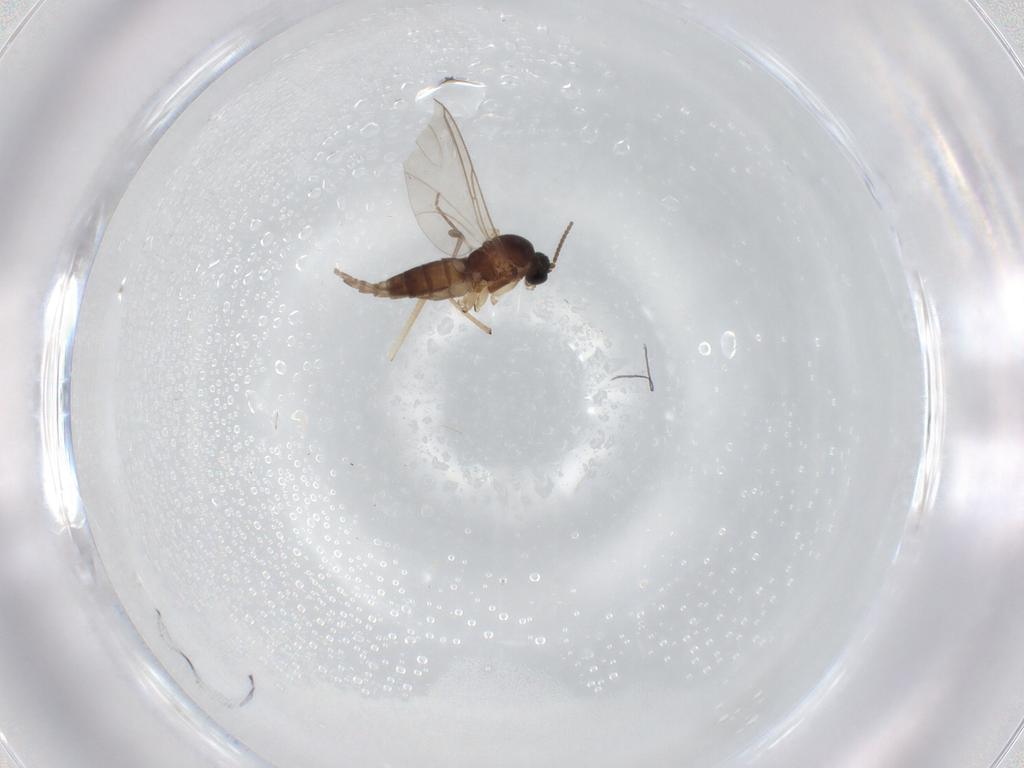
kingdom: Animalia
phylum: Arthropoda
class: Insecta
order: Diptera
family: Sciaridae
